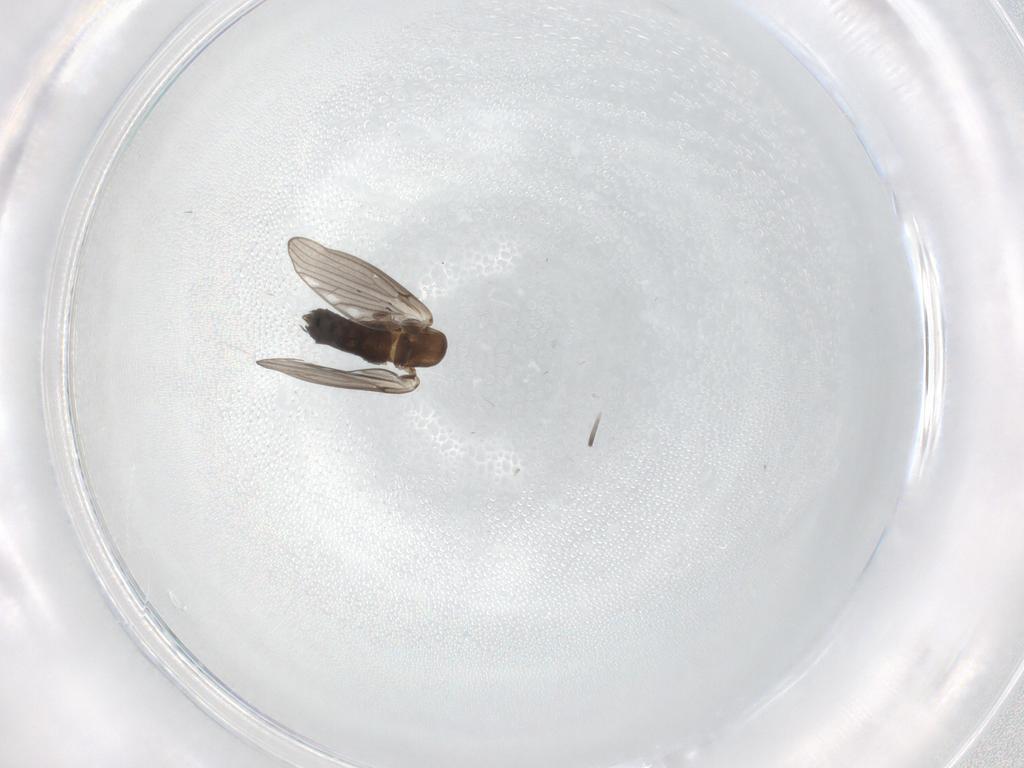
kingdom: Animalia
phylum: Arthropoda
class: Insecta
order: Diptera
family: Psychodidae
